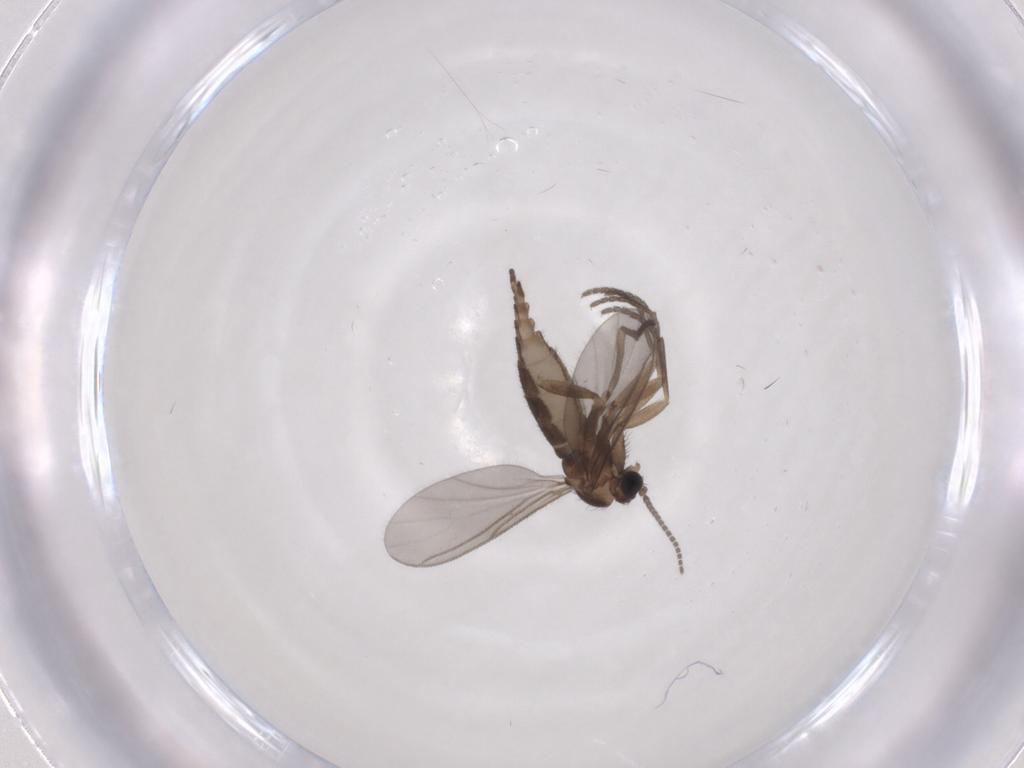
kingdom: Animalia
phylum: Arthropoda
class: Insecta
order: Diptera
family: Sciaridae
